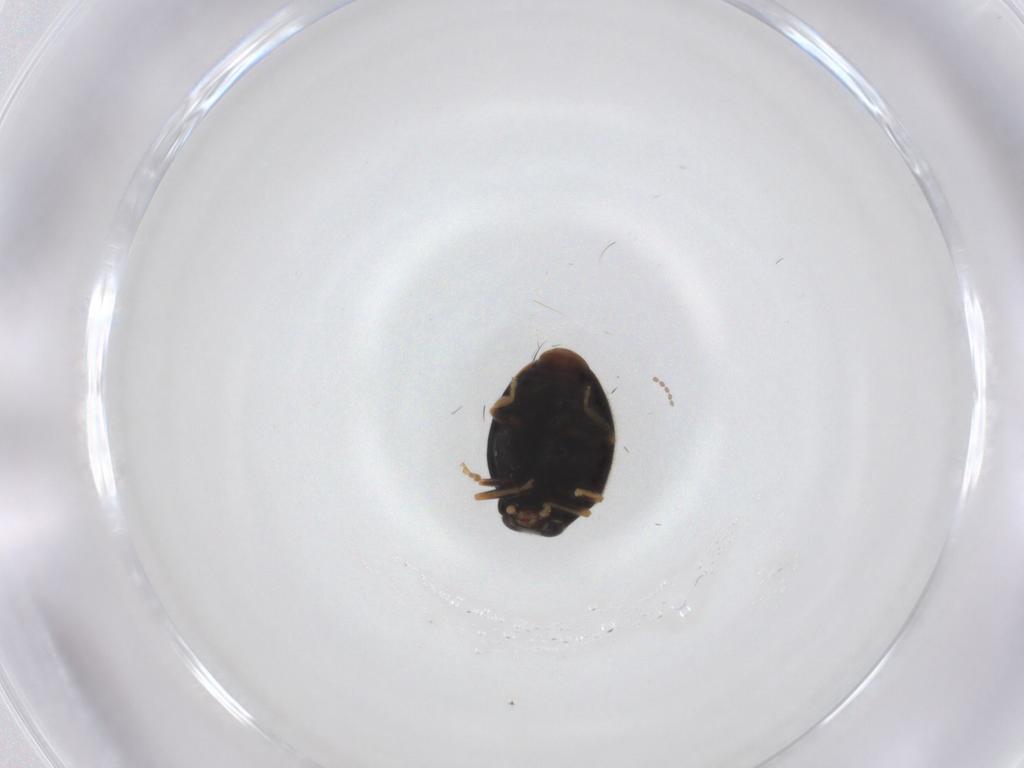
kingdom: Animalia
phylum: Arthropoda
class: Insecta
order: Coleoptera
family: Coccinellidae
